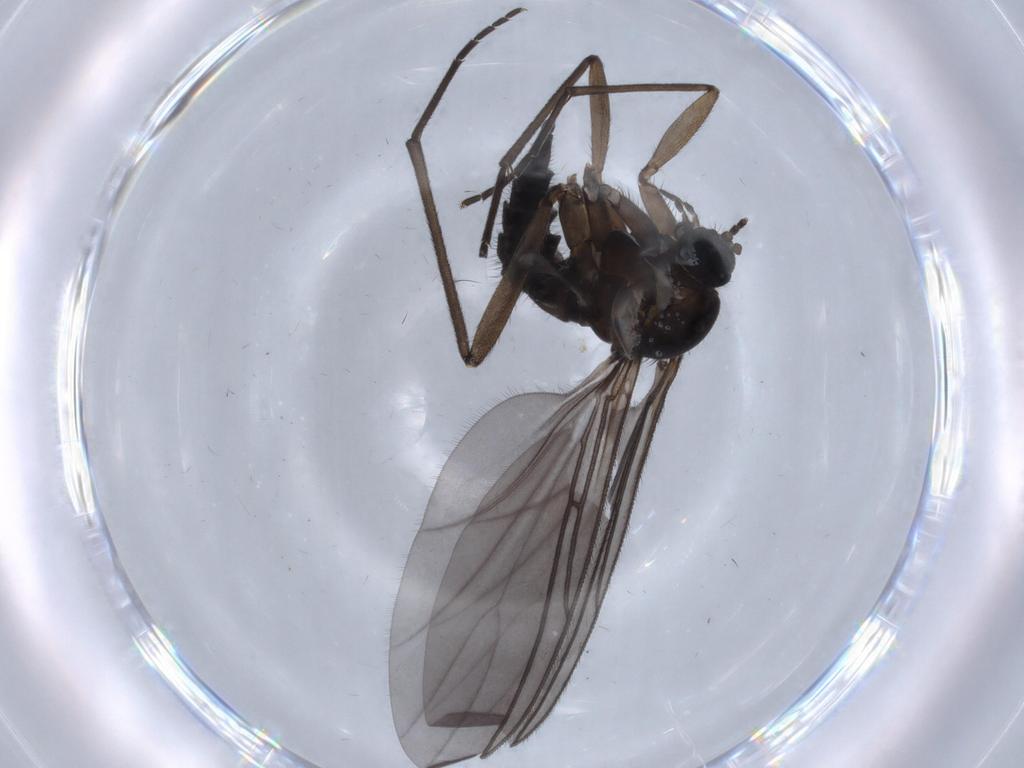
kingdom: Animalia
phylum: Arthropoda
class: Insecta
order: Diptera
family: Sciaridae
